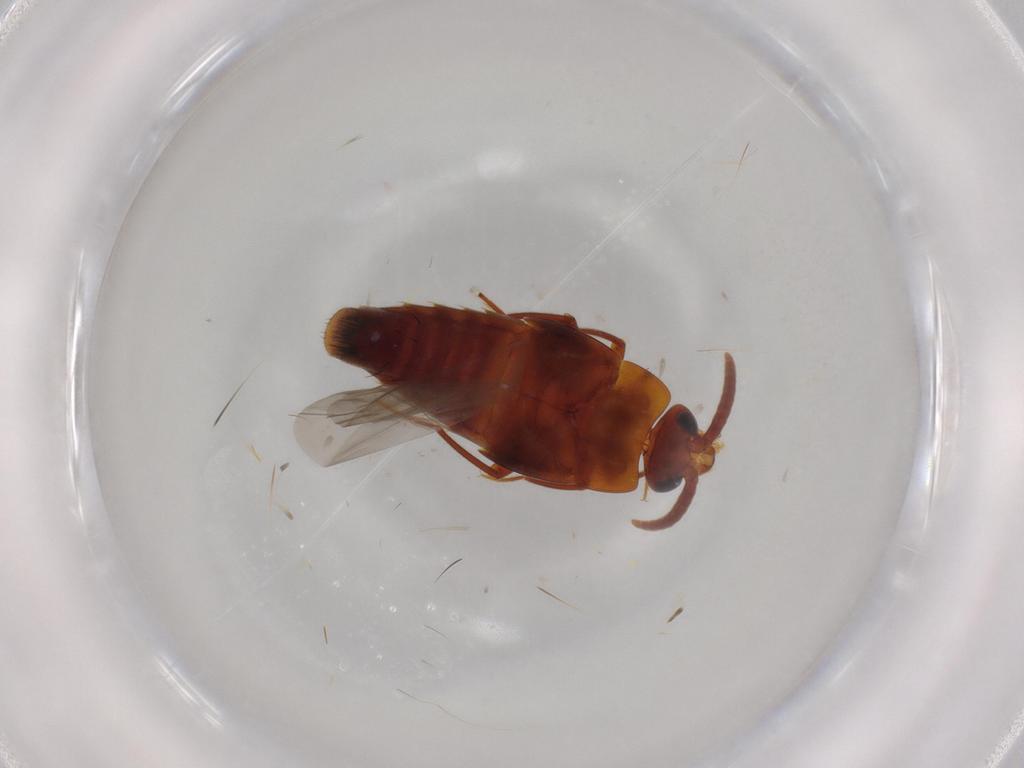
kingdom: Animalia
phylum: Arthropoda
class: Insecta
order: Coleoptera
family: Staphylinidae
